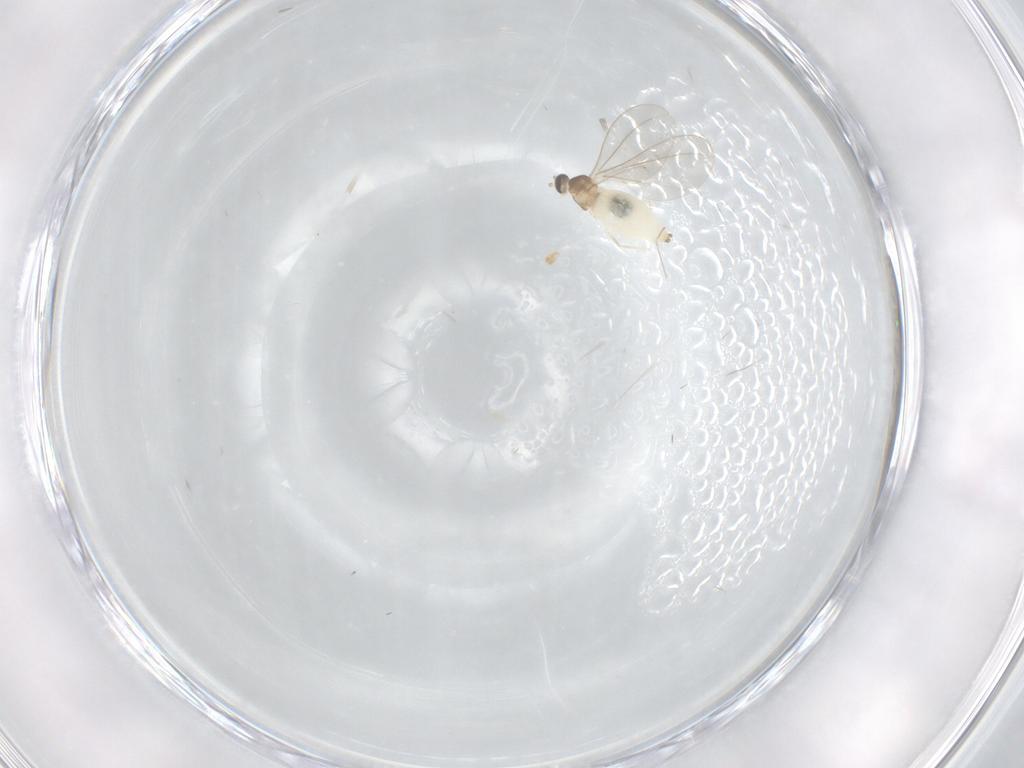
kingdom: Animalia
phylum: Arthropoda
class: Insecta
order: Diptera
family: Cecidomyiidae
